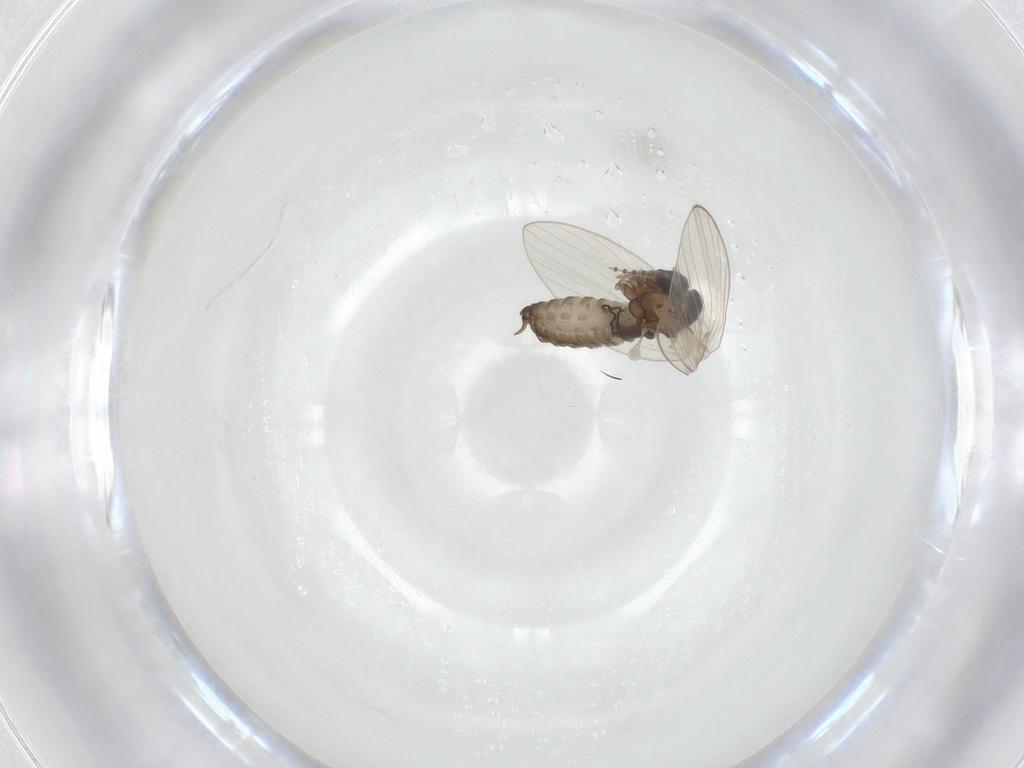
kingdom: Animalia
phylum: Arthropoda
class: Insecta
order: Diptera
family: Psychodidae
